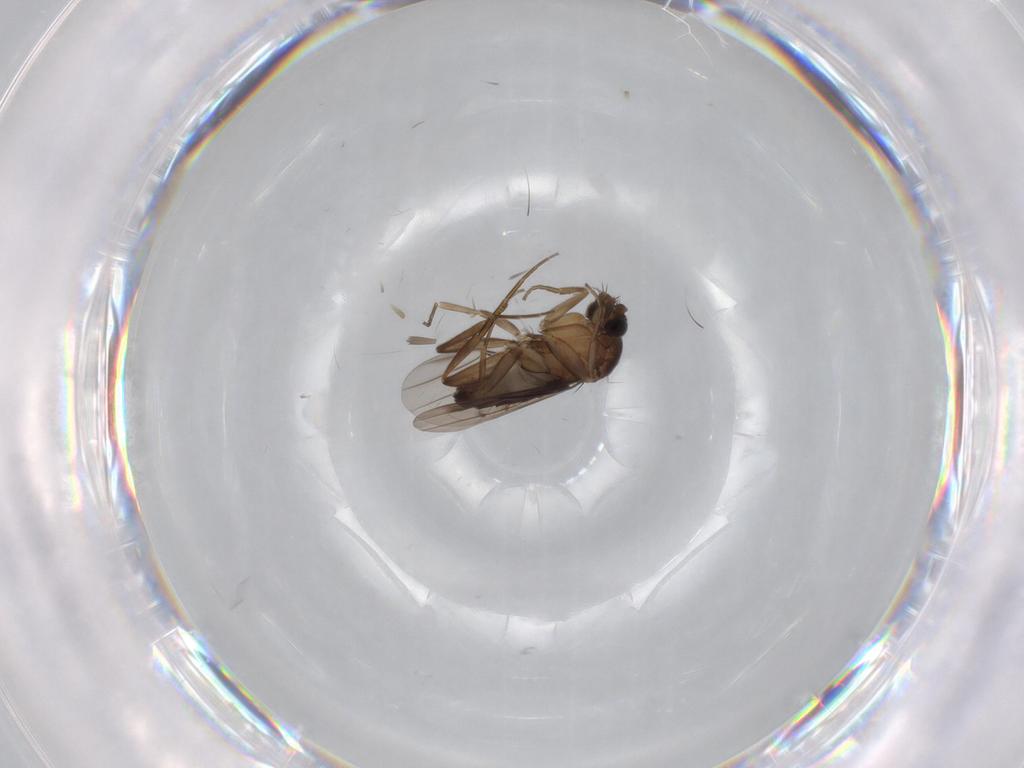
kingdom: Animalia
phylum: Arthropoda
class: Insecta
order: Diptera
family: Phoridae
